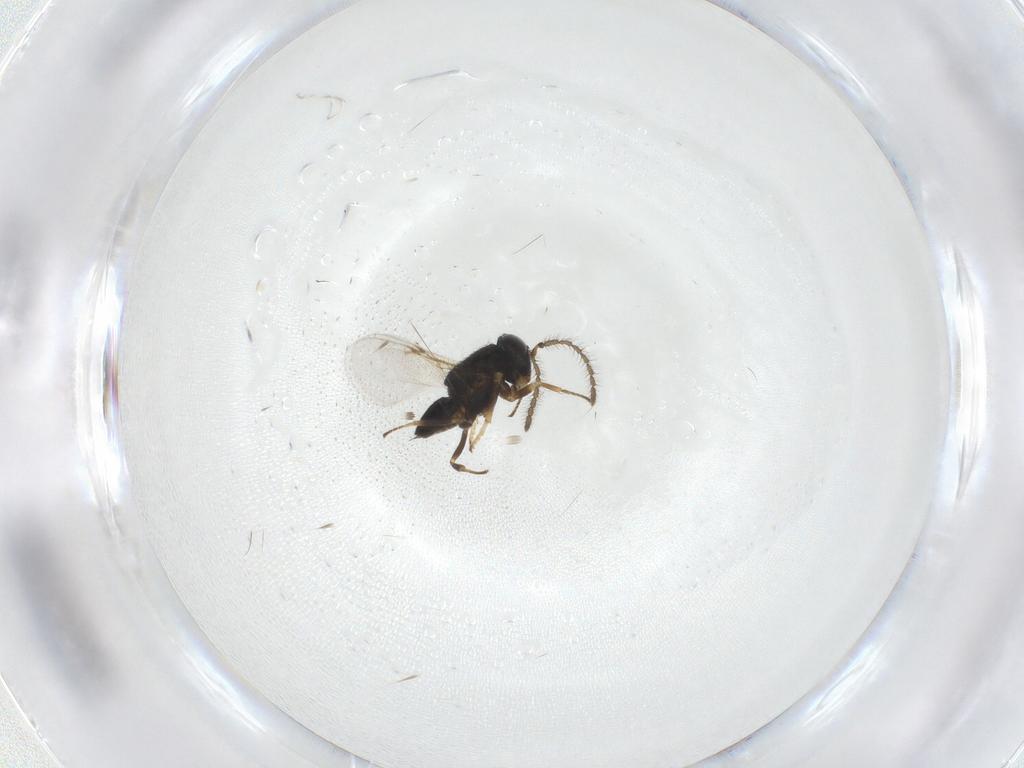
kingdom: Animalia
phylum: Arthropoda
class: Insecta
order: Hymenoptera
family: Encyrtidae
